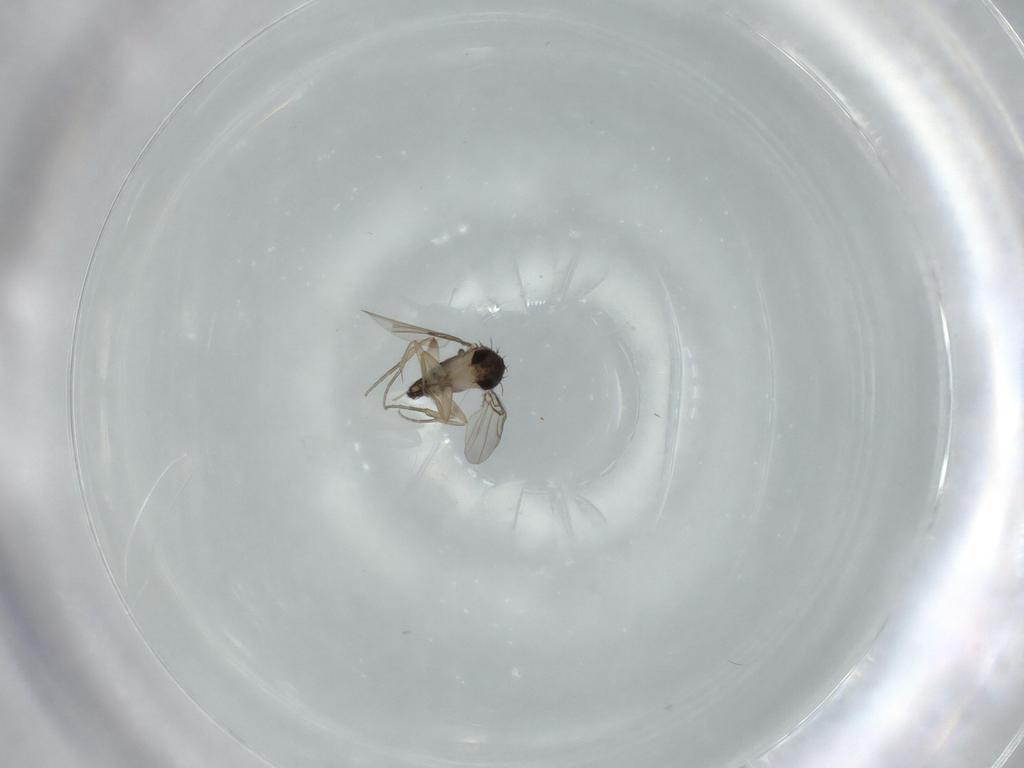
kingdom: Animalia
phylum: Arthropoda
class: Insecta
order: Diptera
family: Phoridae
